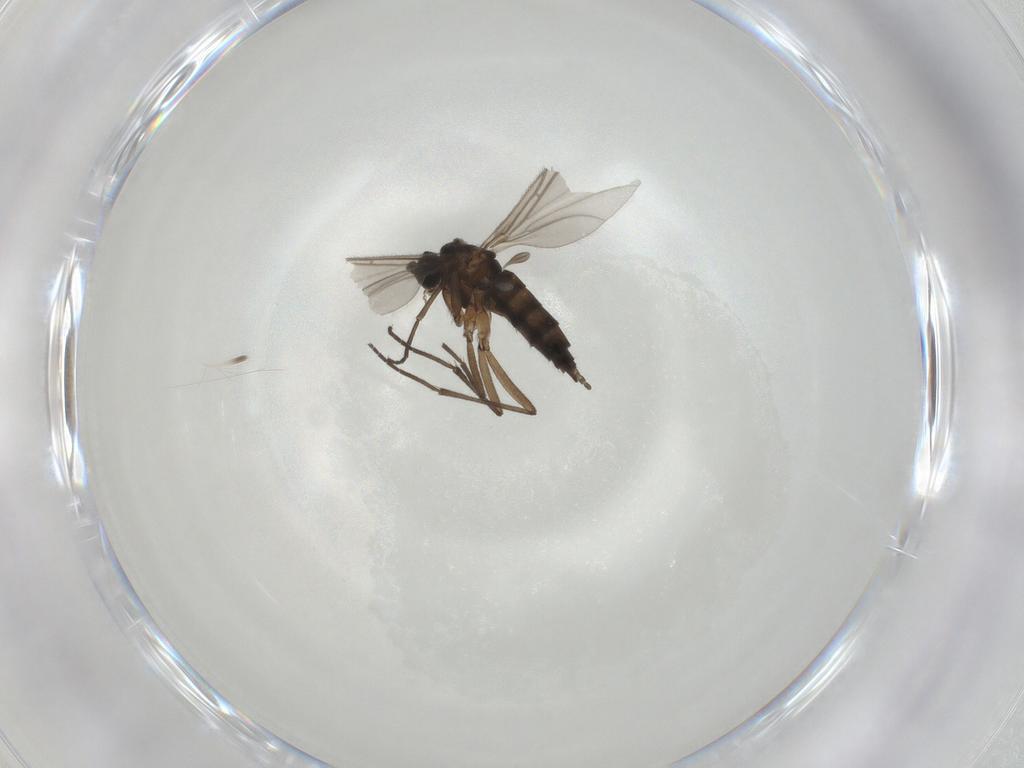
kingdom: Animalia
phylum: Arthropoda
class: Insecta
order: Diptera
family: Sciaridae
